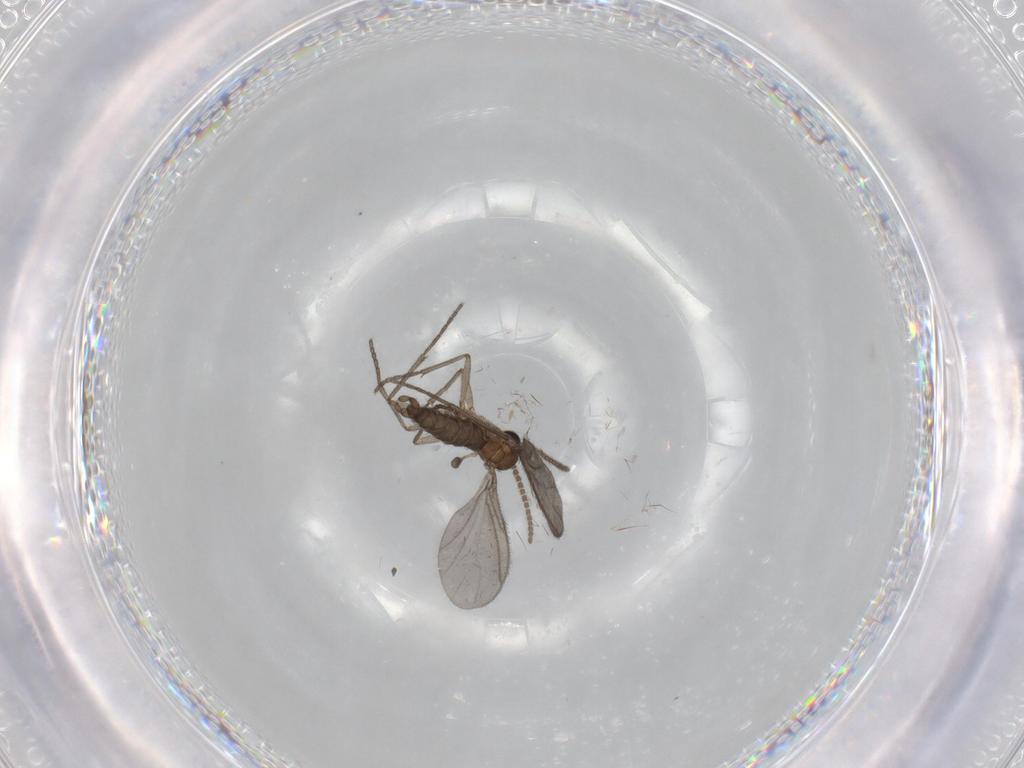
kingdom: Animalia
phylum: Arthropoda
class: Insecta
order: Diptera
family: Sciaridae
